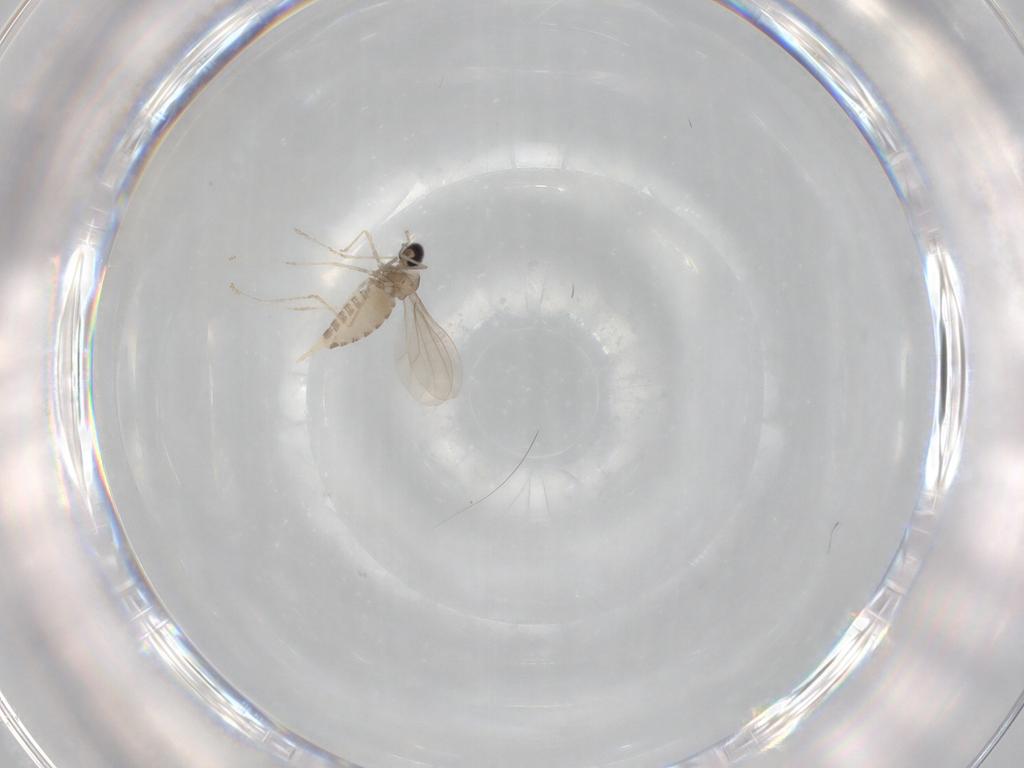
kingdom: Animalia
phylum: Arthropoda
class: Insecta
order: Diptera
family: Cecidomyiidae
